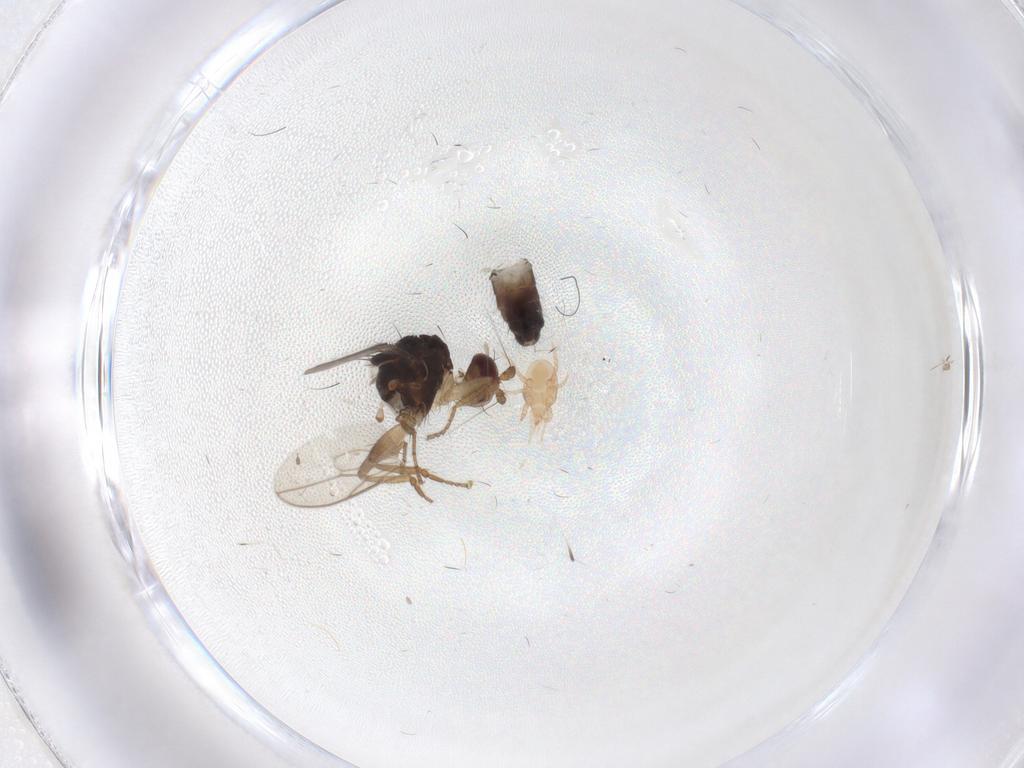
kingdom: Animalia
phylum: Arthropoda
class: Insecta
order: Diptera
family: Sphaeroceridae
